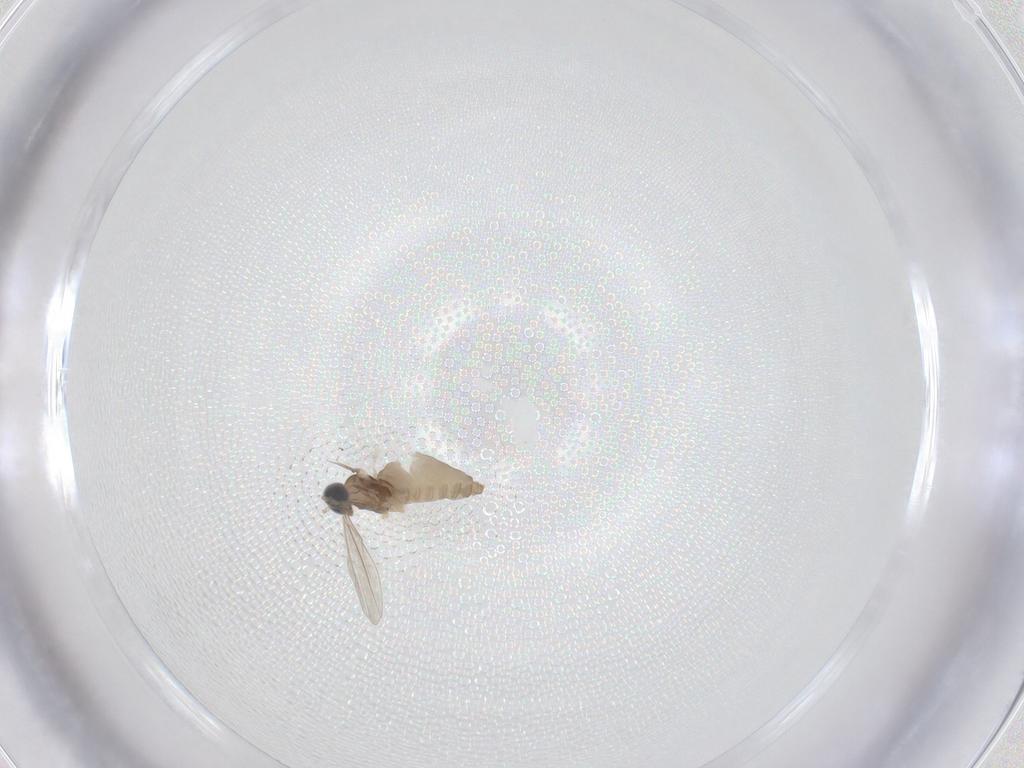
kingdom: Animalia
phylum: Arthropoda
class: Insecta
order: Diptera
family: Cecidomyiidae
